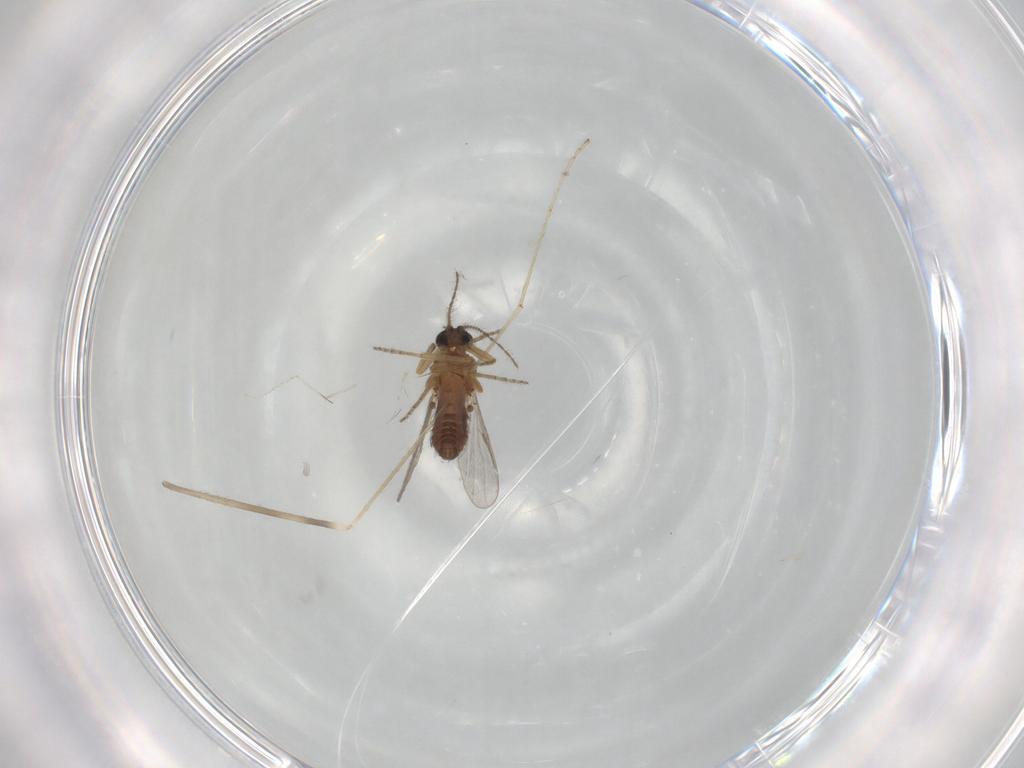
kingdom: Animalia
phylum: Arthropoda
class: Insecta
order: Diptera
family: Ceratopogonidae
